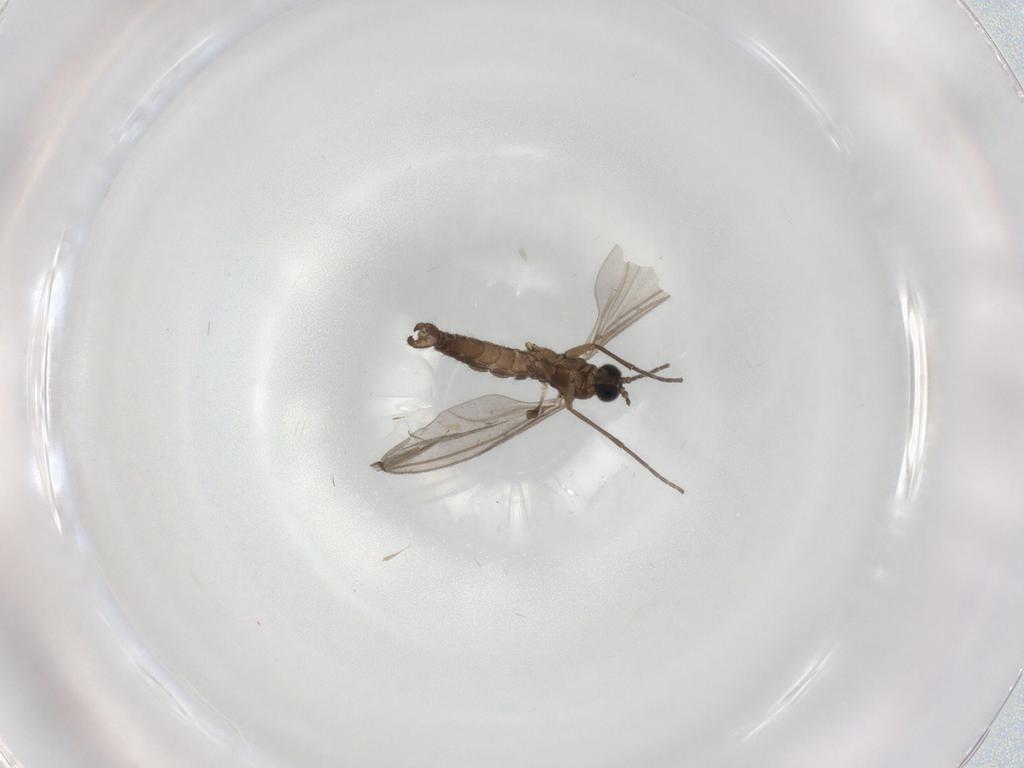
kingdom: Animalia
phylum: Arthropoda
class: Insecta
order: Diptera
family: Sciaridae
